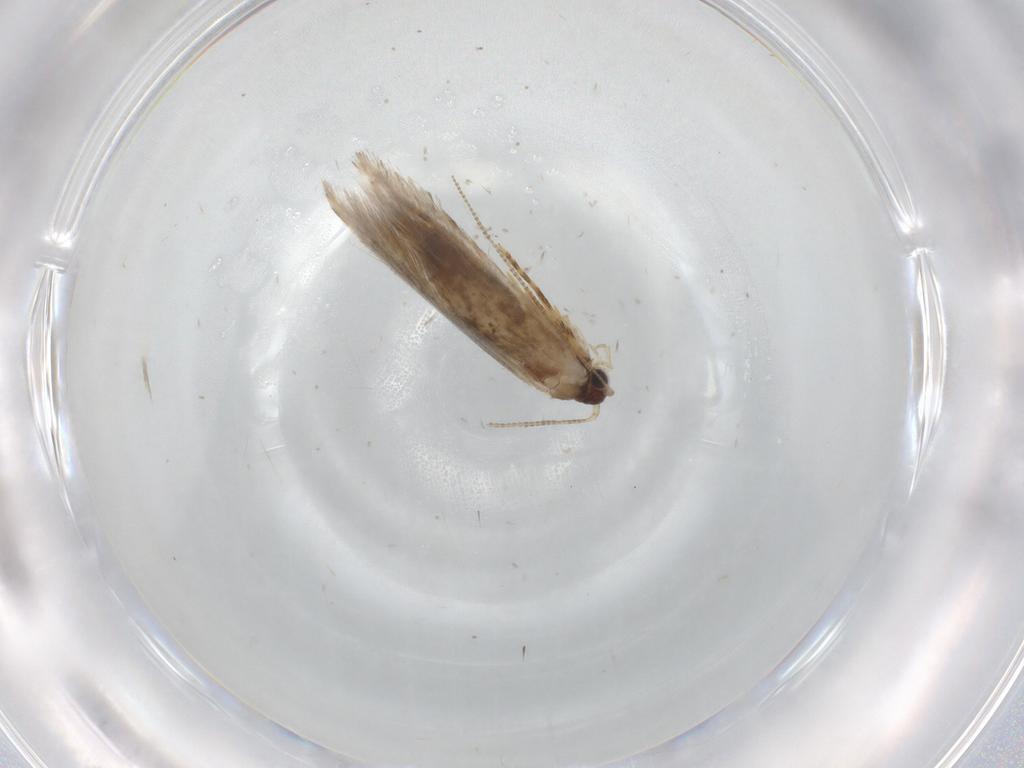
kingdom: Animalia
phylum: Arthropoda
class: Insecta
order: Lepidoptera
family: Tineidae
